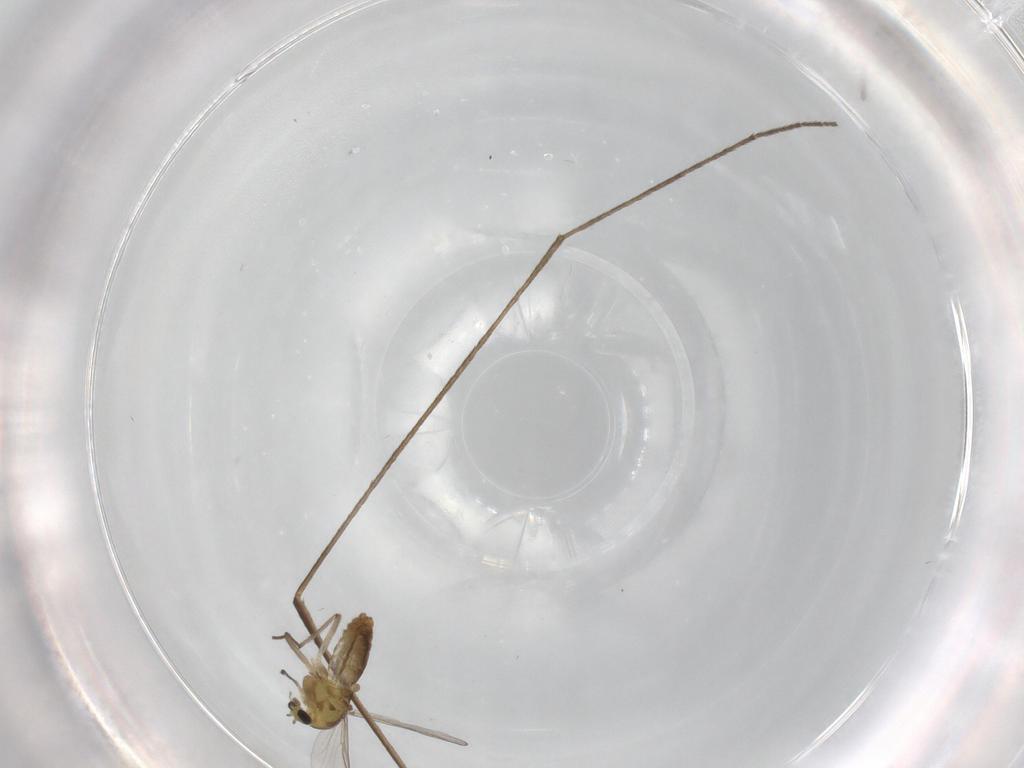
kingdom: Animalia
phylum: Arthropoda
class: Insecta
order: Diptera
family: Limoniidae
